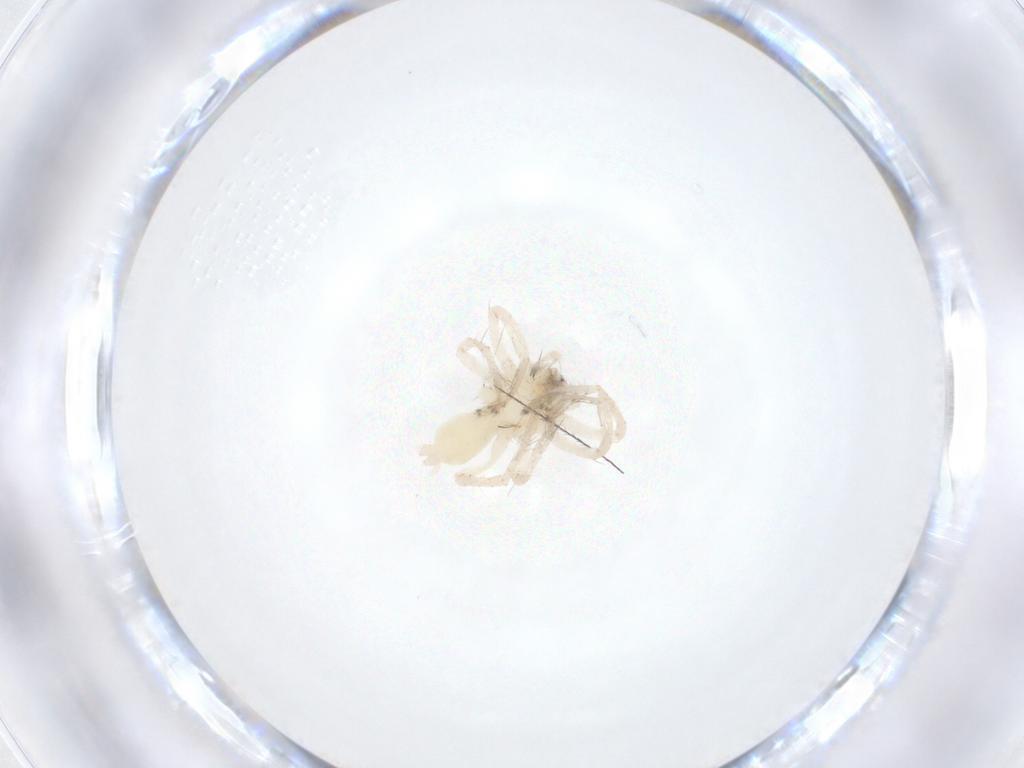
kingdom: Animalia
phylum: Arthropoda
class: Arachnida
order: Araneae
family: Anyphaenidae
